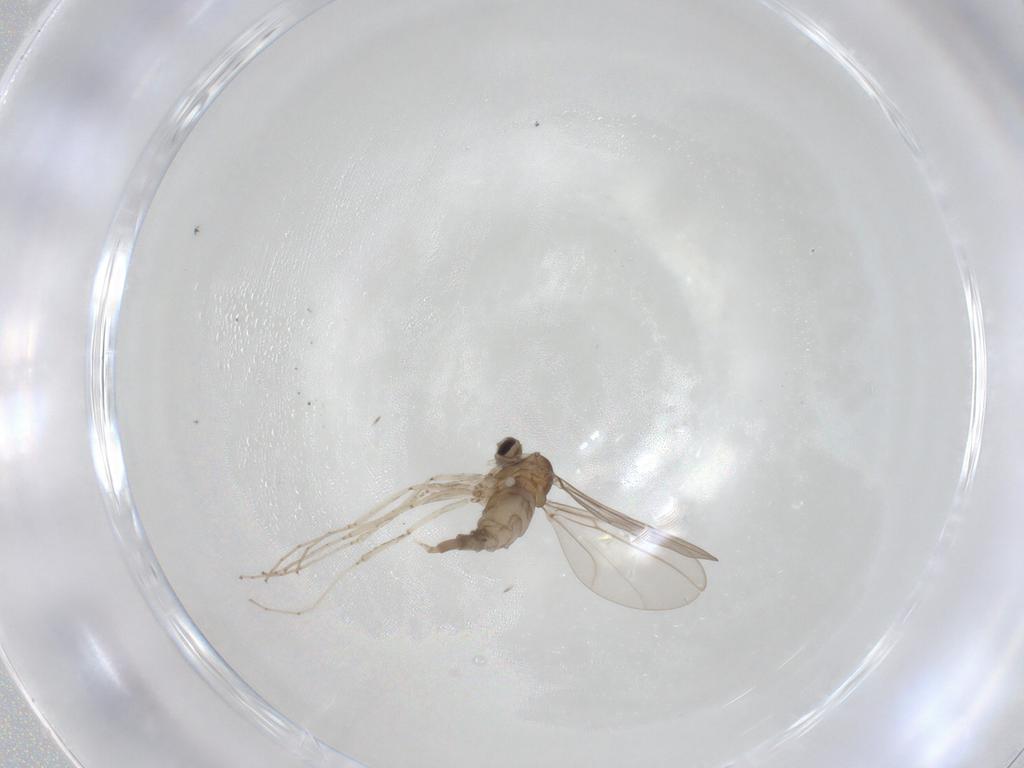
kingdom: Animalia
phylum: Arthropoda
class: Insecta
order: Diptera
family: Cecidomyiidae
